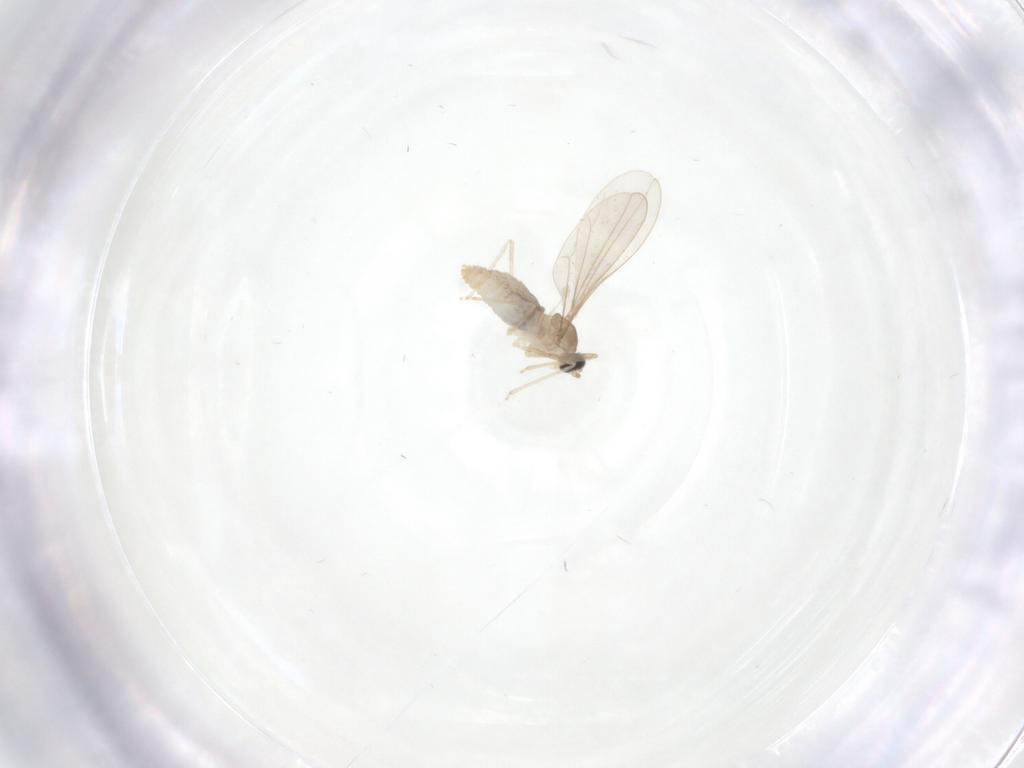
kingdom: Animalia
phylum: Arthropoda
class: Insecta
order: Diptera
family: Cecidomyiidae
